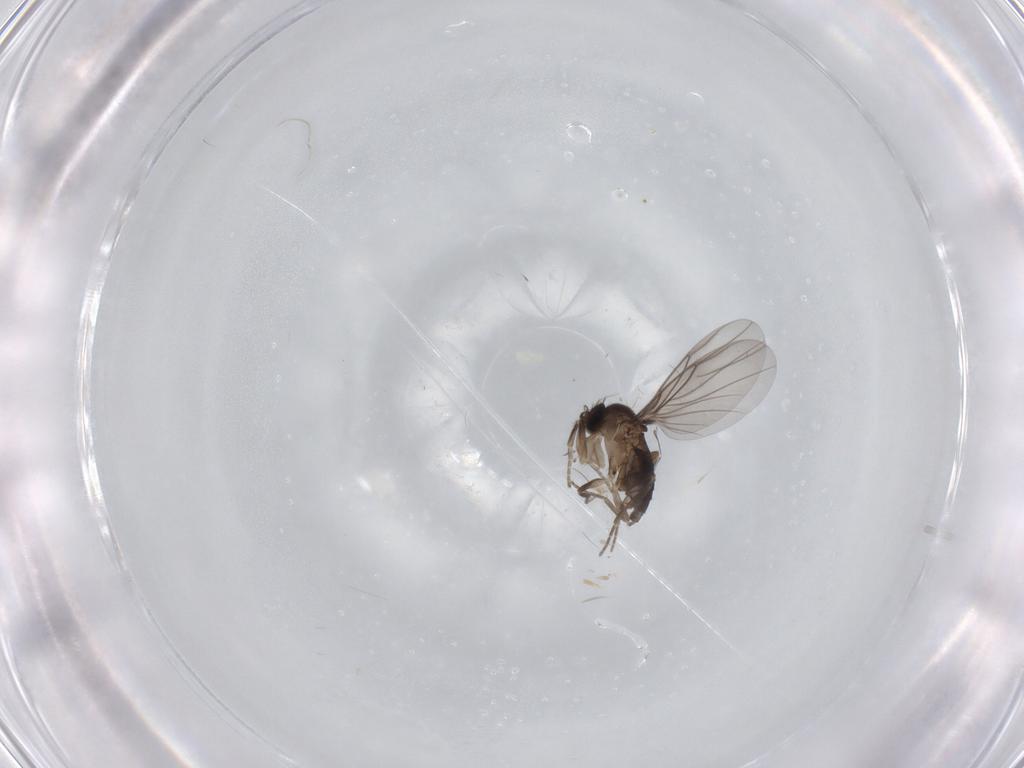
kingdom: Animalia
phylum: Arthropoda
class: Insecta
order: Diptera
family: Phoridae
